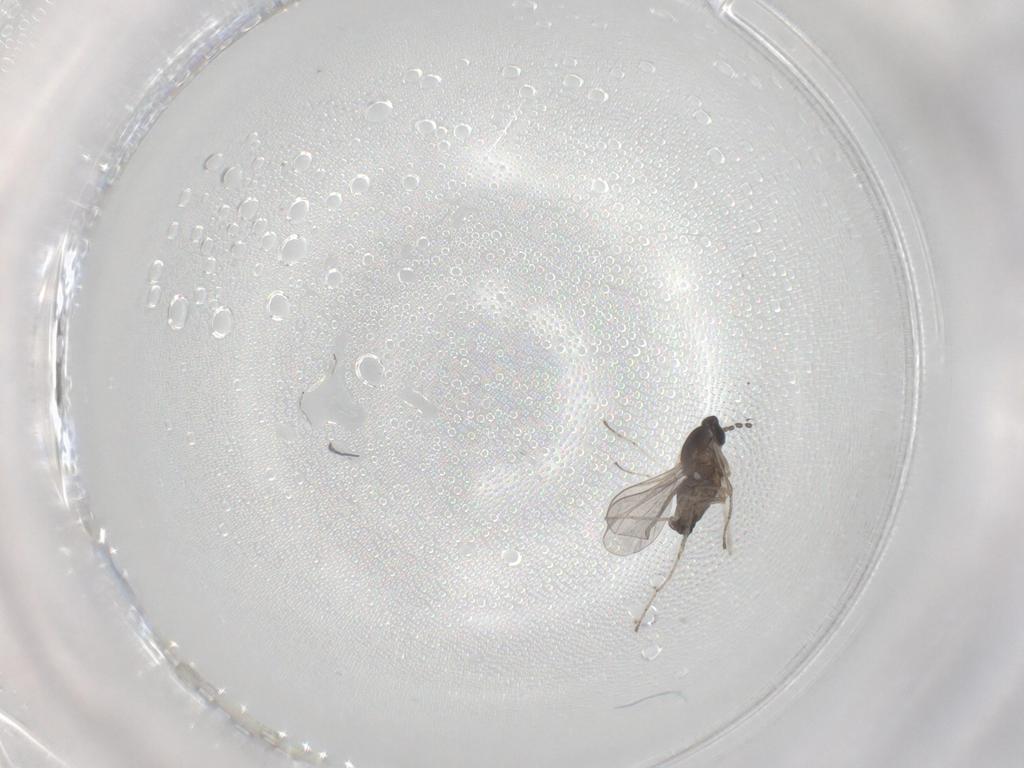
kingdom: Animalia
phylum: Arthropoda
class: Insecta
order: Diptera
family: Cecidomyiidae
